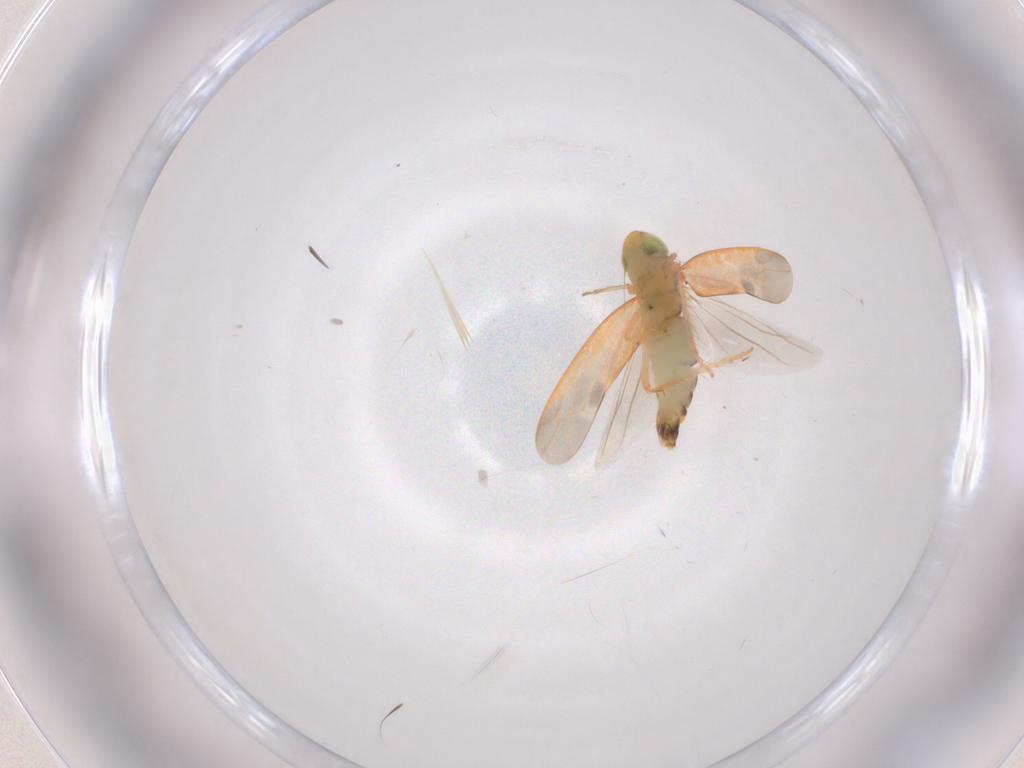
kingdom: Animalia
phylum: Arthropoda
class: Insecta
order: Hemiptera
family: Cicadellidae
